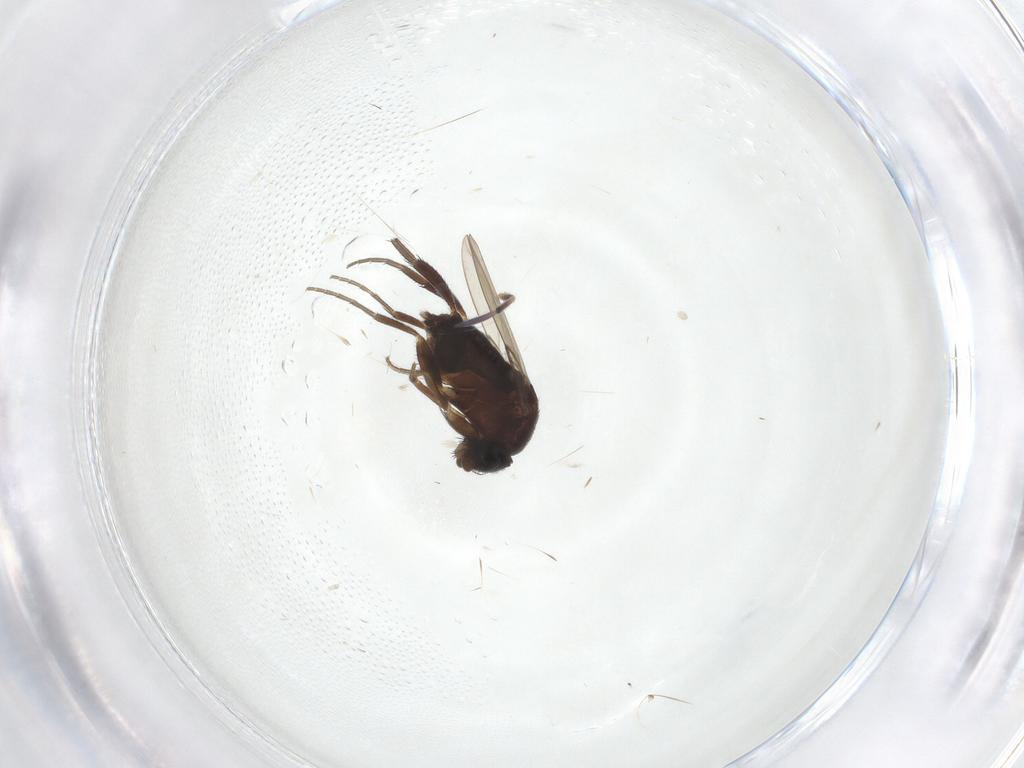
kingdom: Animalia
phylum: Arthropoda
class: Insecta
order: Diptera
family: Phoridae
